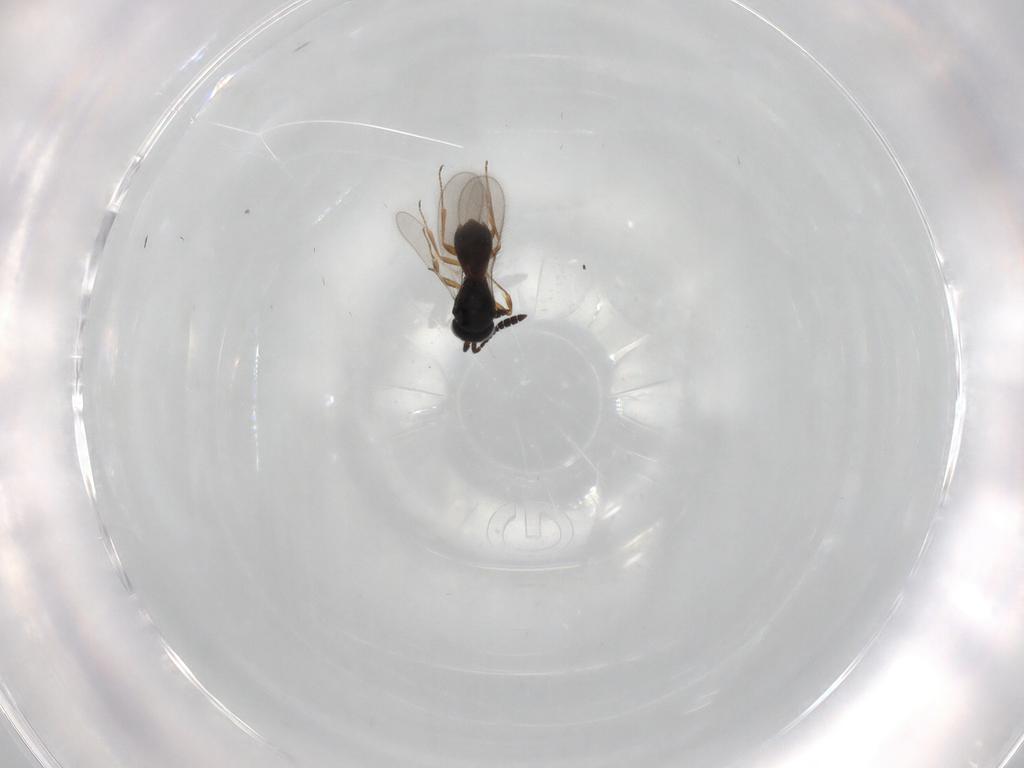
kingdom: Animalia
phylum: Arthropoda
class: Insecta
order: Hymenoptera
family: Scelionidae
